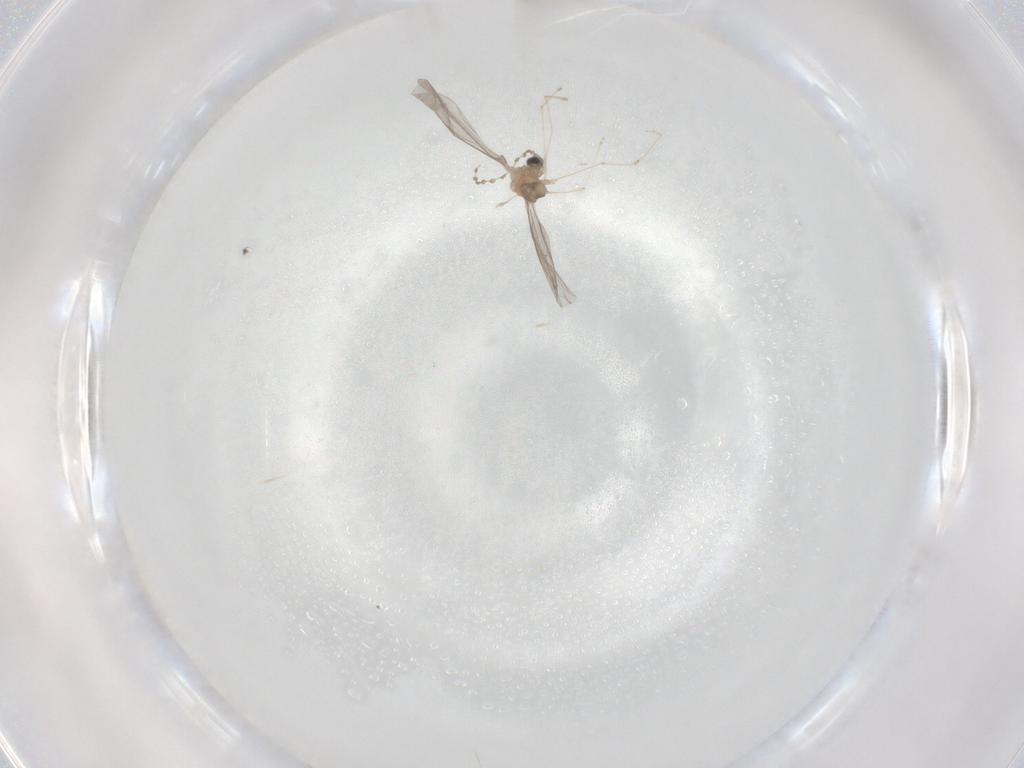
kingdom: Animalia
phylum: Arthropoda
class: Insecta
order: Diptera
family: Cecidomyiidae
